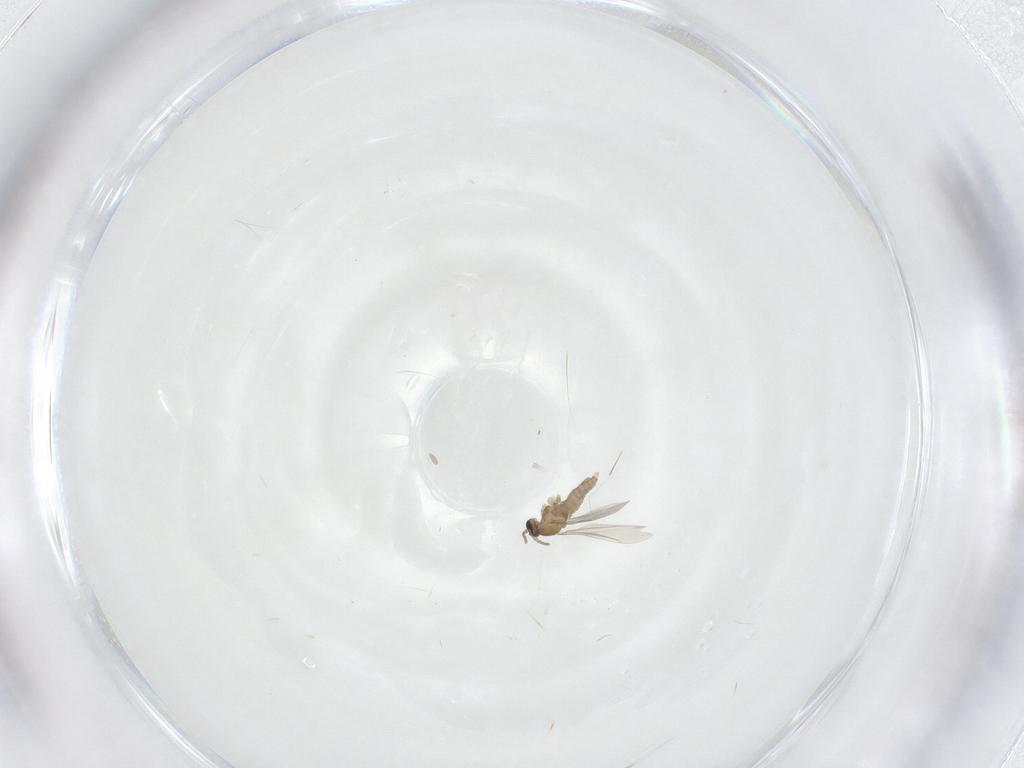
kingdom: Animalia
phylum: Arthropoda
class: Insecta
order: Diptera
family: Cecidomyiidae
